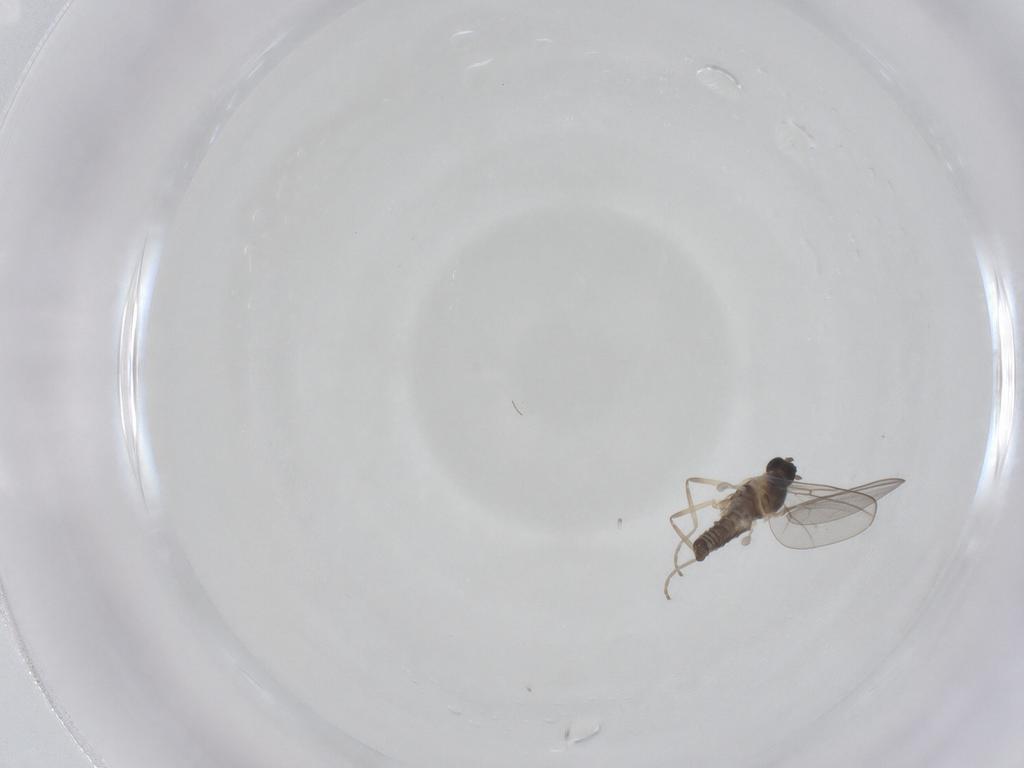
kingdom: Animalia
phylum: Arthropoda
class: Insecta
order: Diptera
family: Cecidomyiidae
